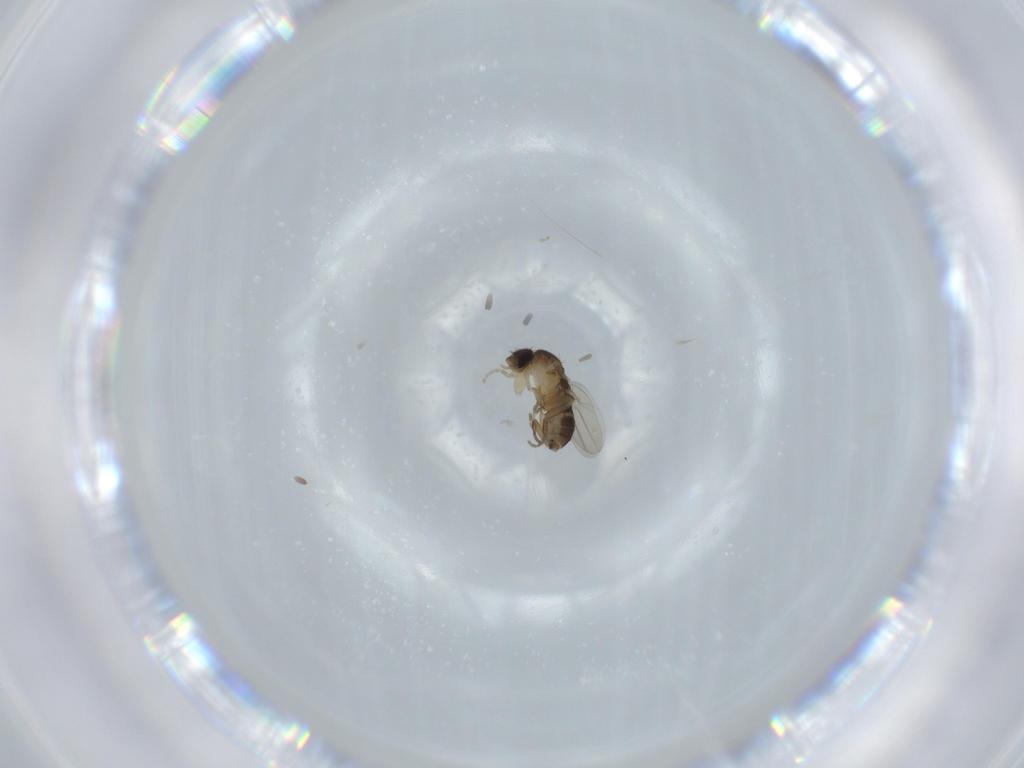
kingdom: Animalia
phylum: Arthropoda
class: Insecta
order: Diptera
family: Phoridae
